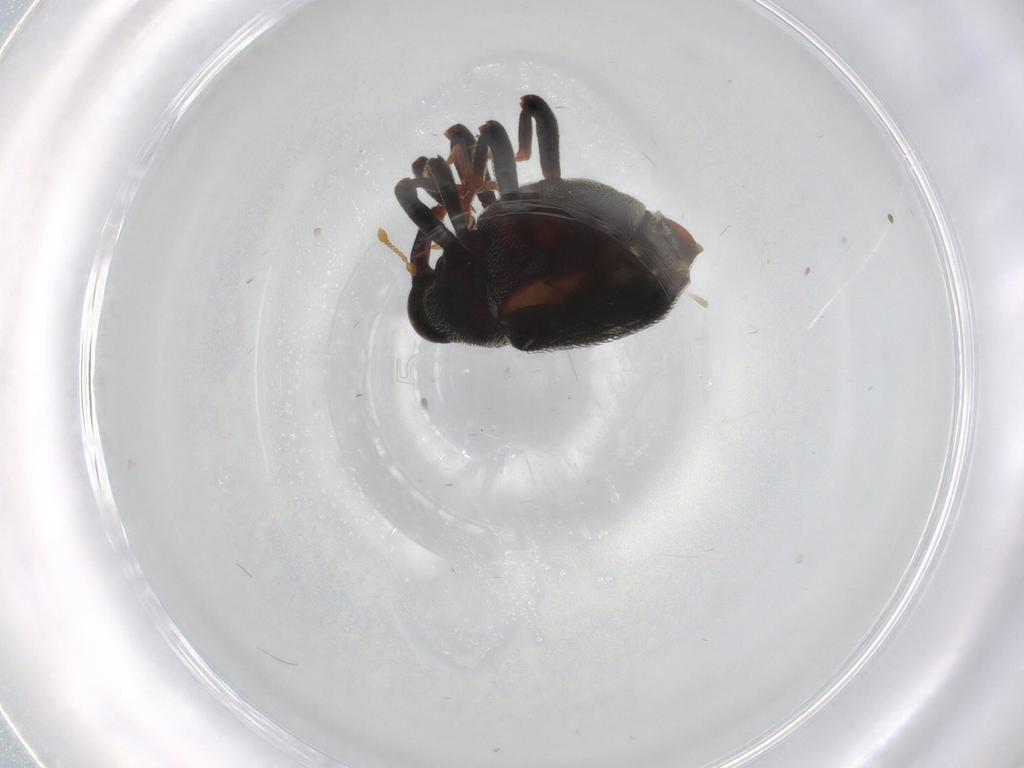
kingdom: Animalia
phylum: Arthropoda
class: Insecta
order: Coleoptera
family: Curculionidae
